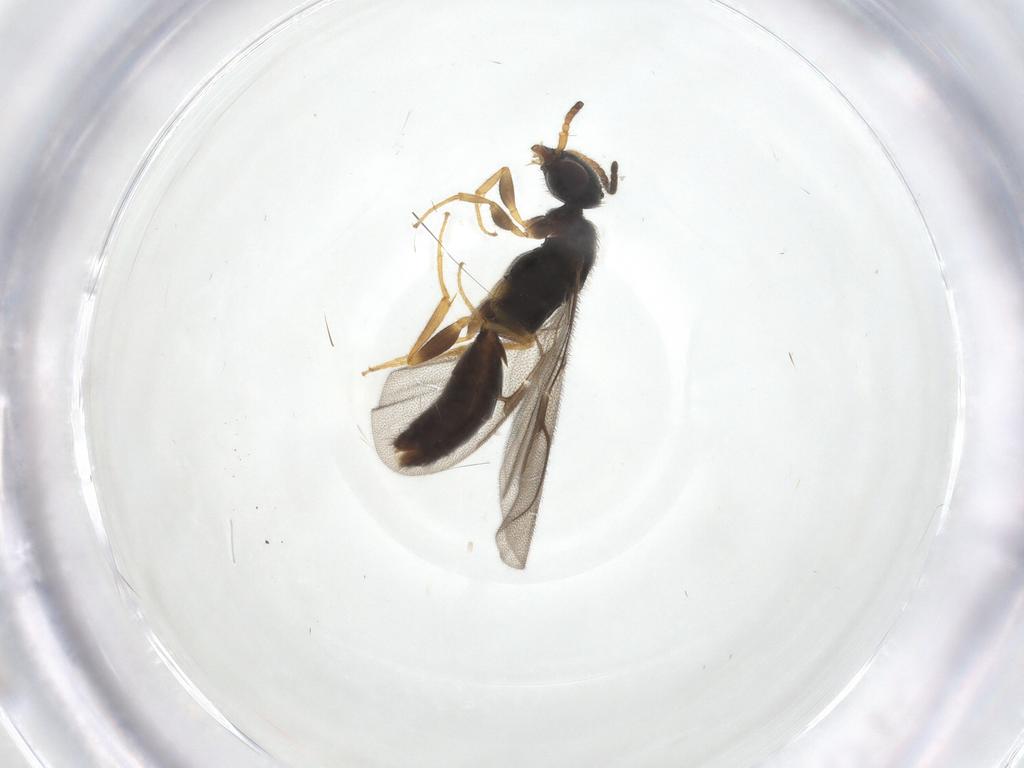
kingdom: Animalia
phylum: Arthropoda
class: Insecta
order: Hymenoptera
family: Bethylidae
